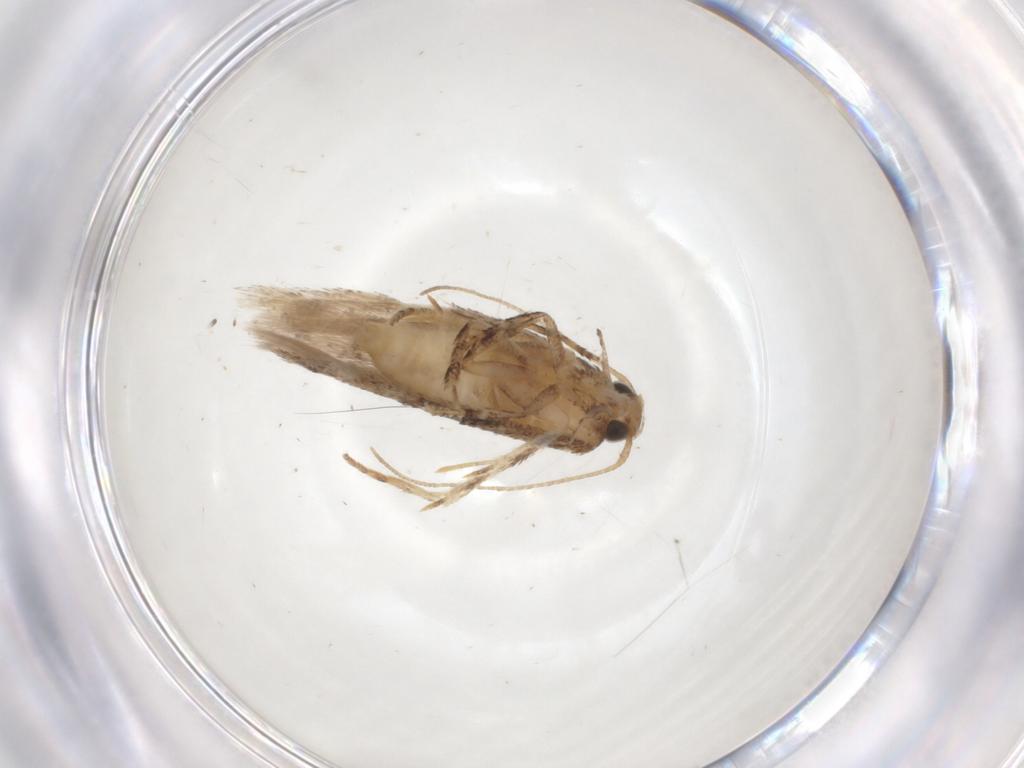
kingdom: Animalia
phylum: Arthropoda
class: Insecta
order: Lepidoptera
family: Gelechiidae
